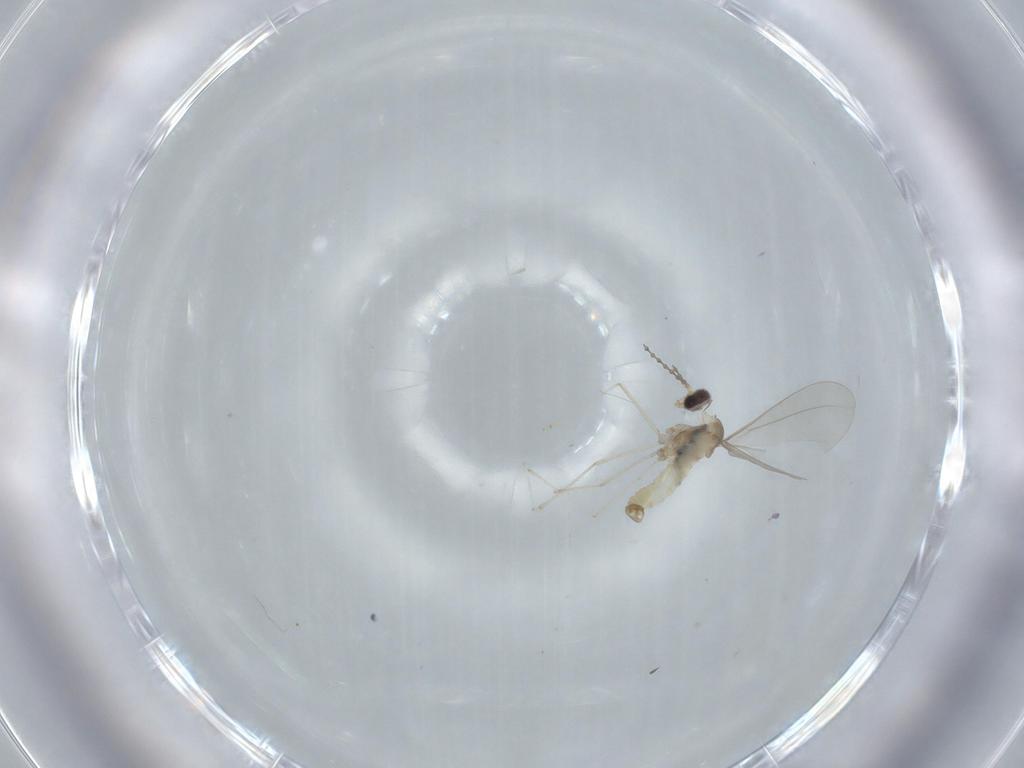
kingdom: Animalia
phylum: Arthropoda
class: Insecta
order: Diptera
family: Cecidomyiidae
